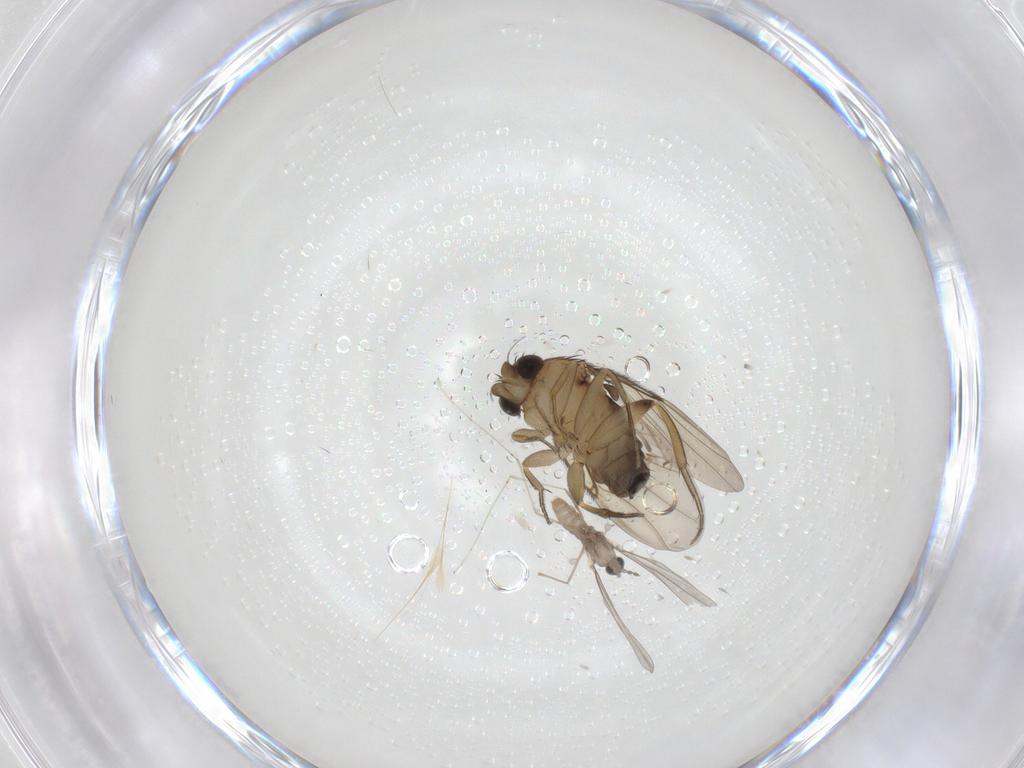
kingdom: Animalia
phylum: Arthropoda
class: Insecta
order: Diptera
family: Phoridae
